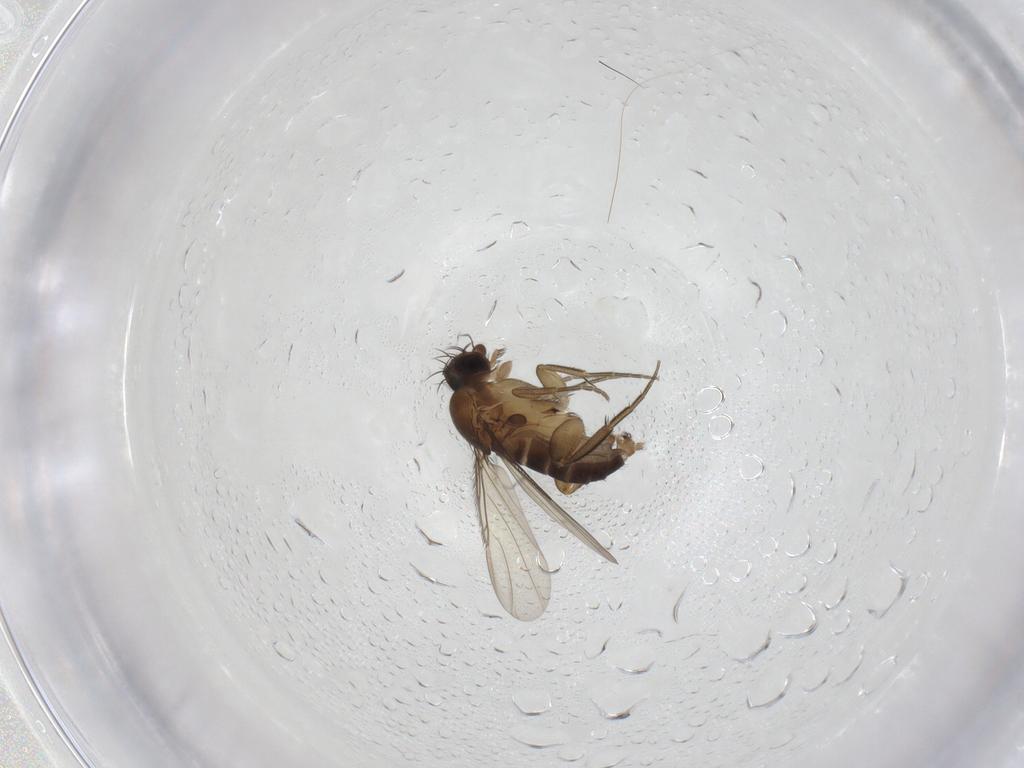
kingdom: Animalia
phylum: Arthropoda
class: Insecta
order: Diptera
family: Phoridae
